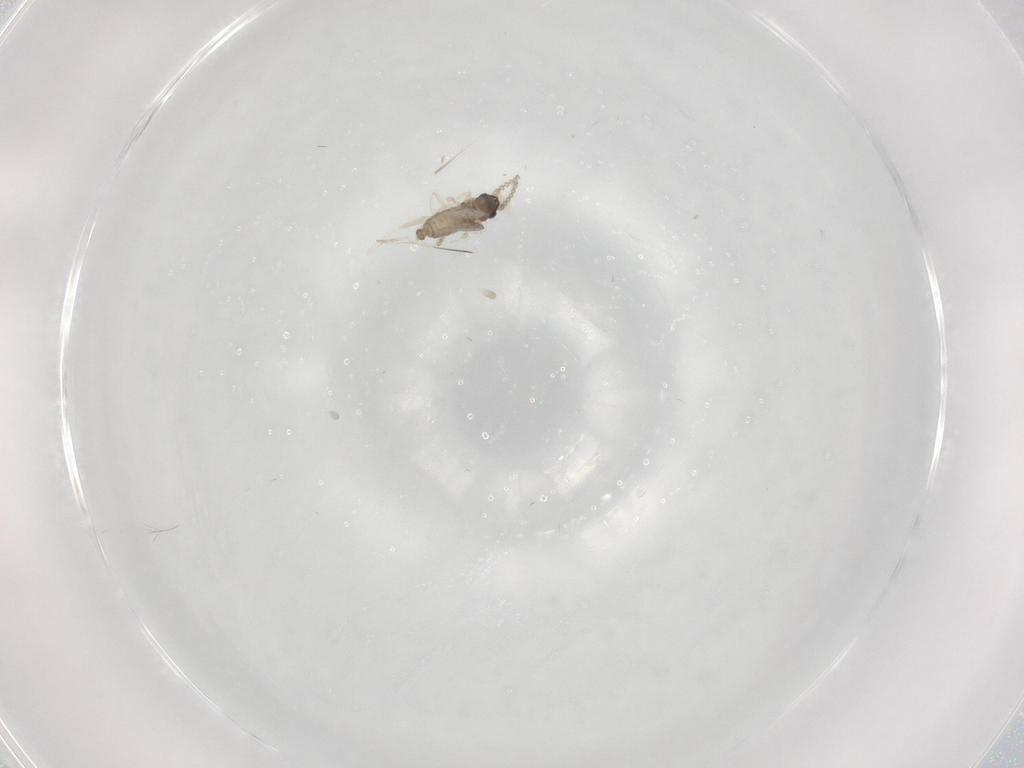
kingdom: Animalia
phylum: Arthropoda
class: Insecta
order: Diptera
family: Cecidomyiidae
